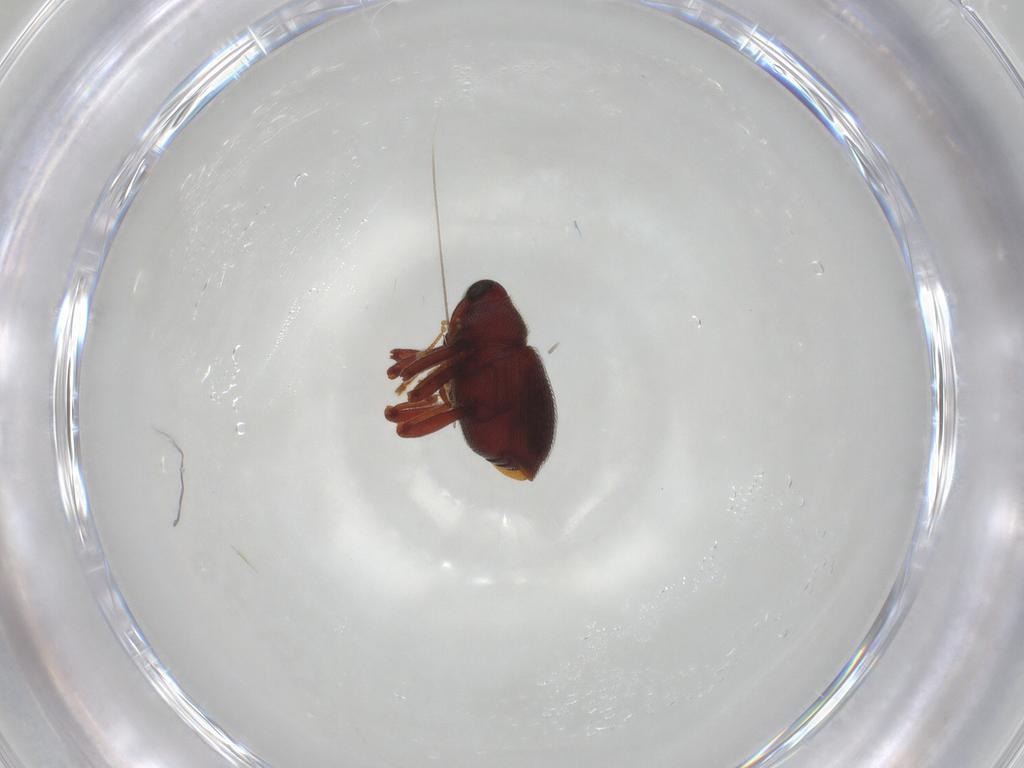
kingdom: Animalia
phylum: Arthropoda
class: Insecta
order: Coleoptera
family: Curculionidae
